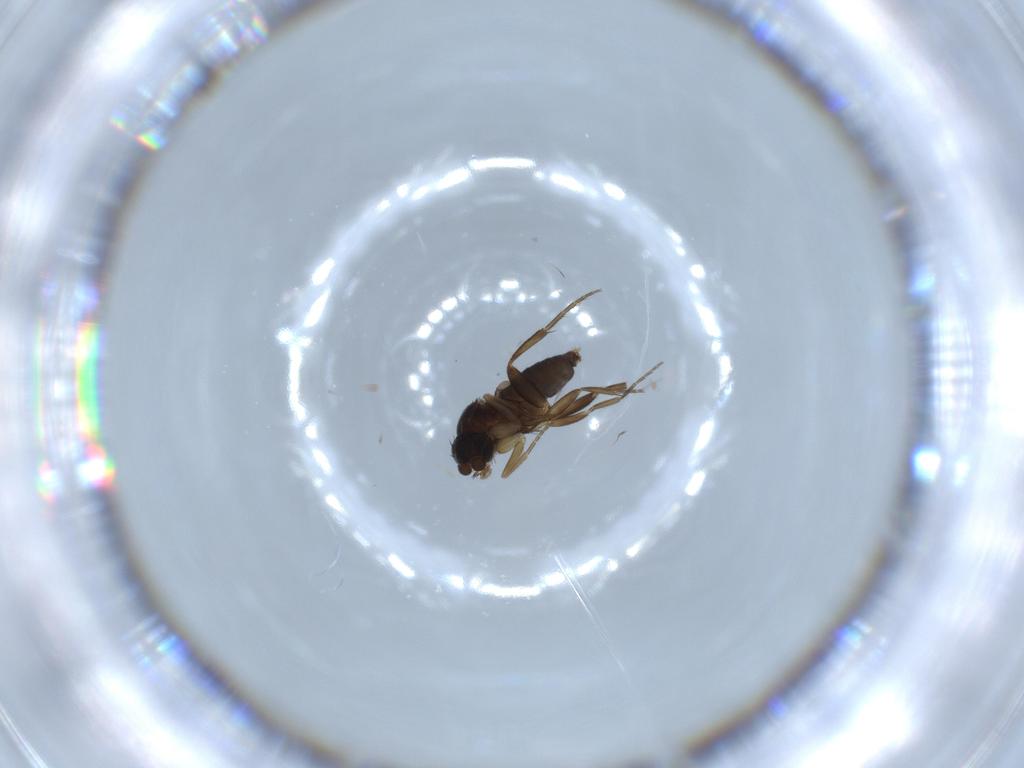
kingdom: Animalia
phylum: Arthropoda
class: Insecta
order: Diptera
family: Phoridae
